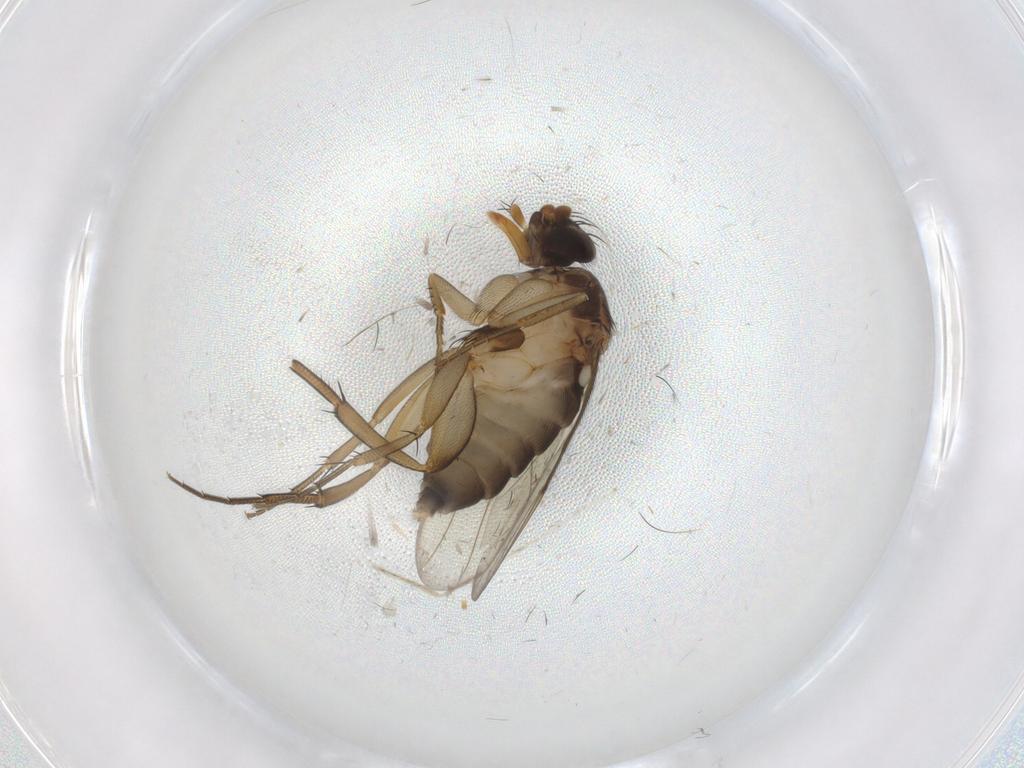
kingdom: Animalia
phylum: Arthropoda
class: Insecta
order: Diptera
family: Phoridae
